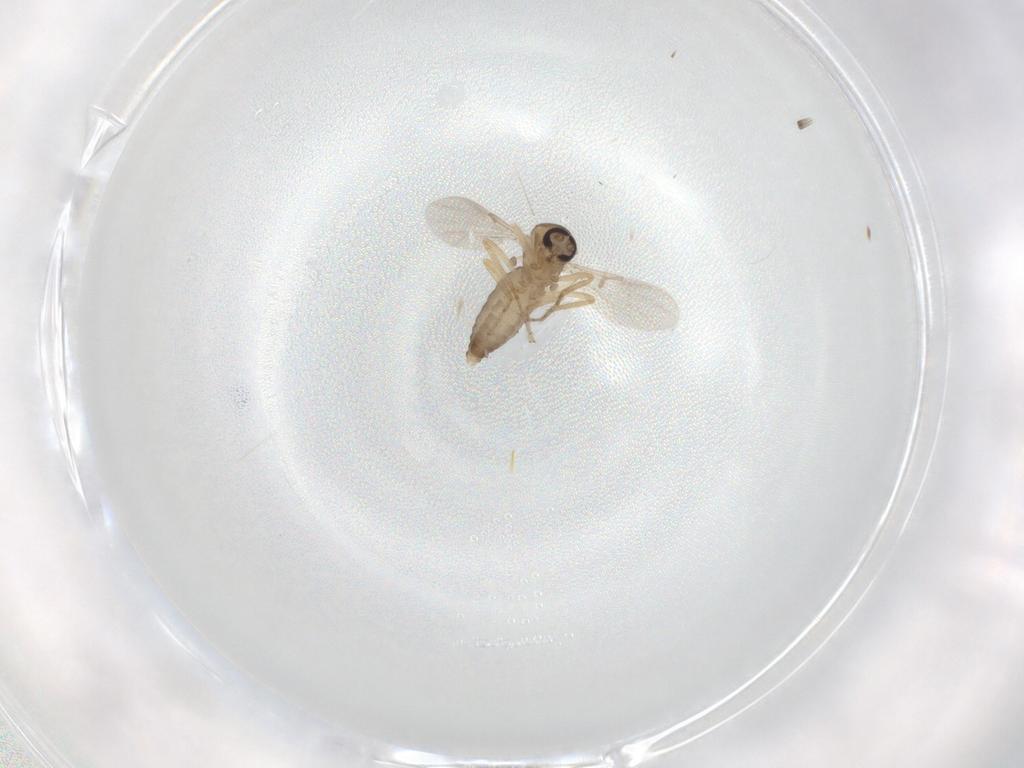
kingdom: Animalia
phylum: Arthropoda
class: Insecta
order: Diptera
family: Ceratopogonidae
